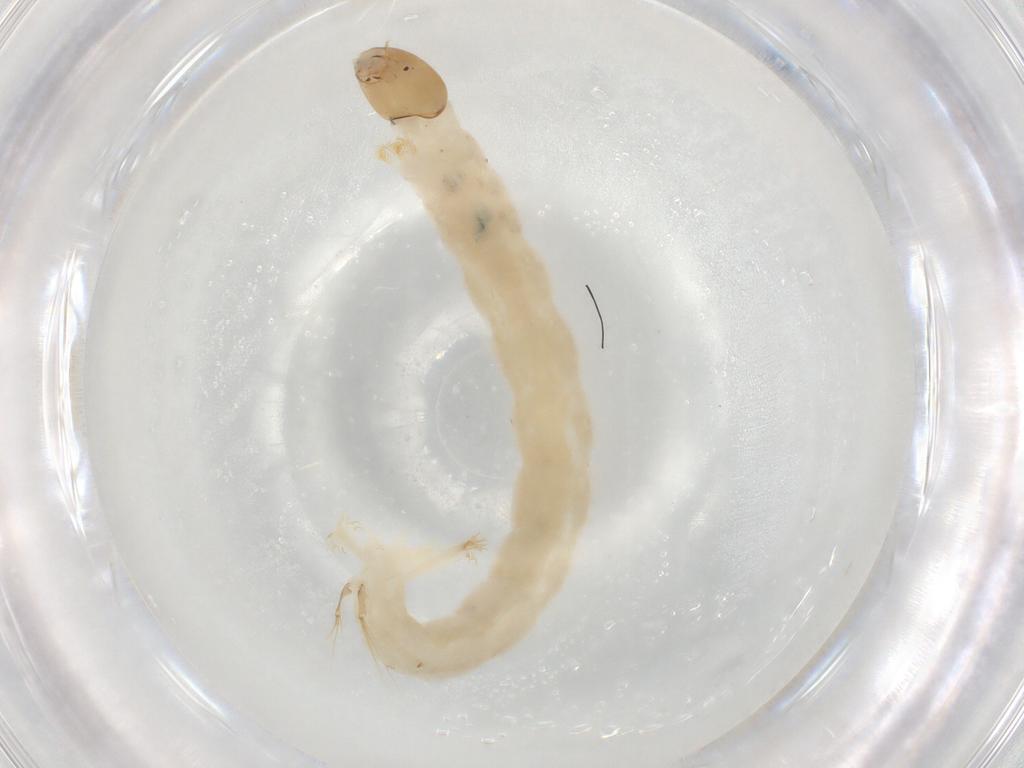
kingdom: Animalia
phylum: Arthropoda
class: Insecta
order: Diptera
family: Chironomidae
